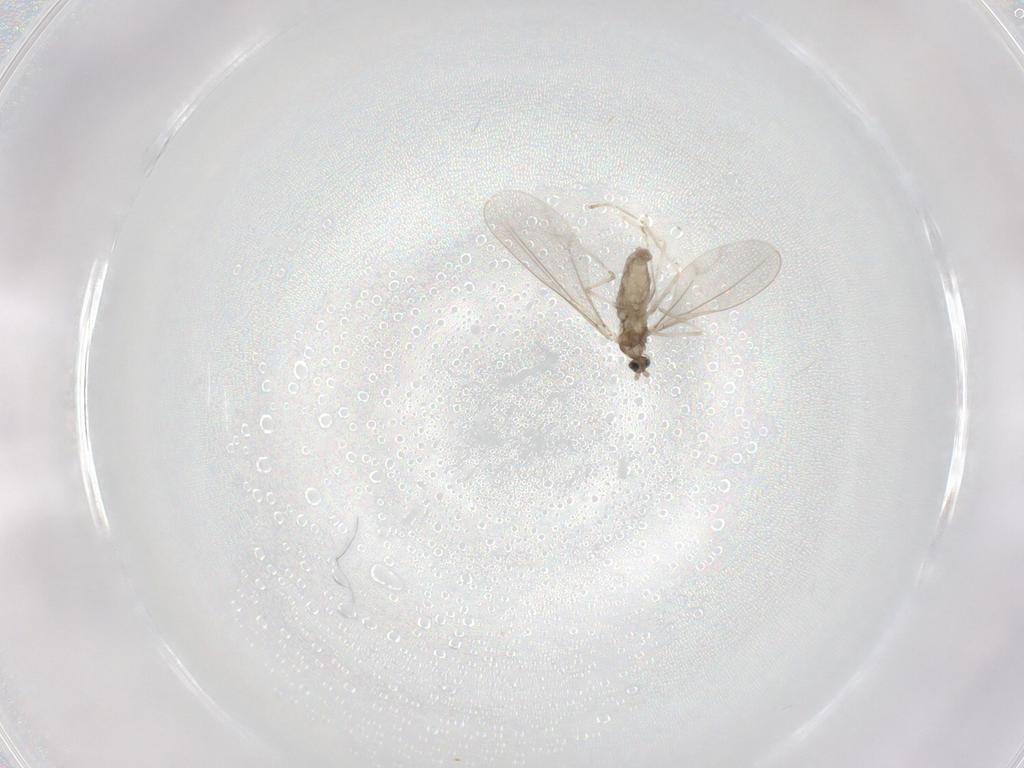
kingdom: Animalia
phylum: Arthropoda
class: Insecta
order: Diptera
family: Cecidomyiidae
